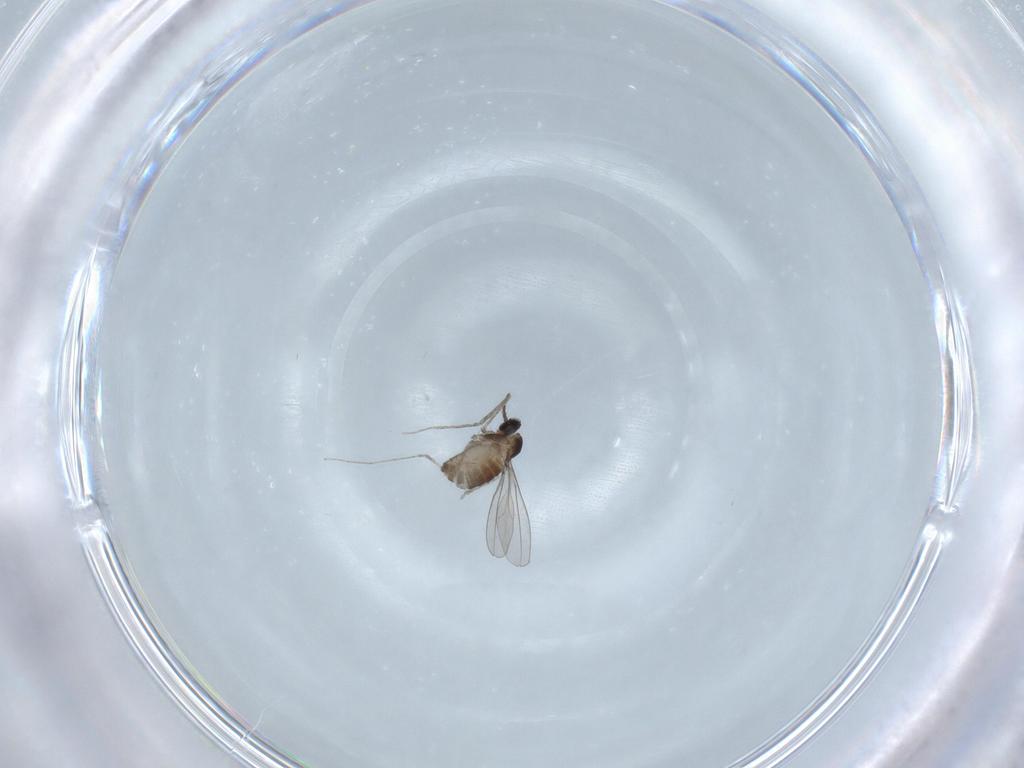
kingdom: Animalia
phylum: Arthropoda
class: Insecta
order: Diptera
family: Cecidomyiidae
